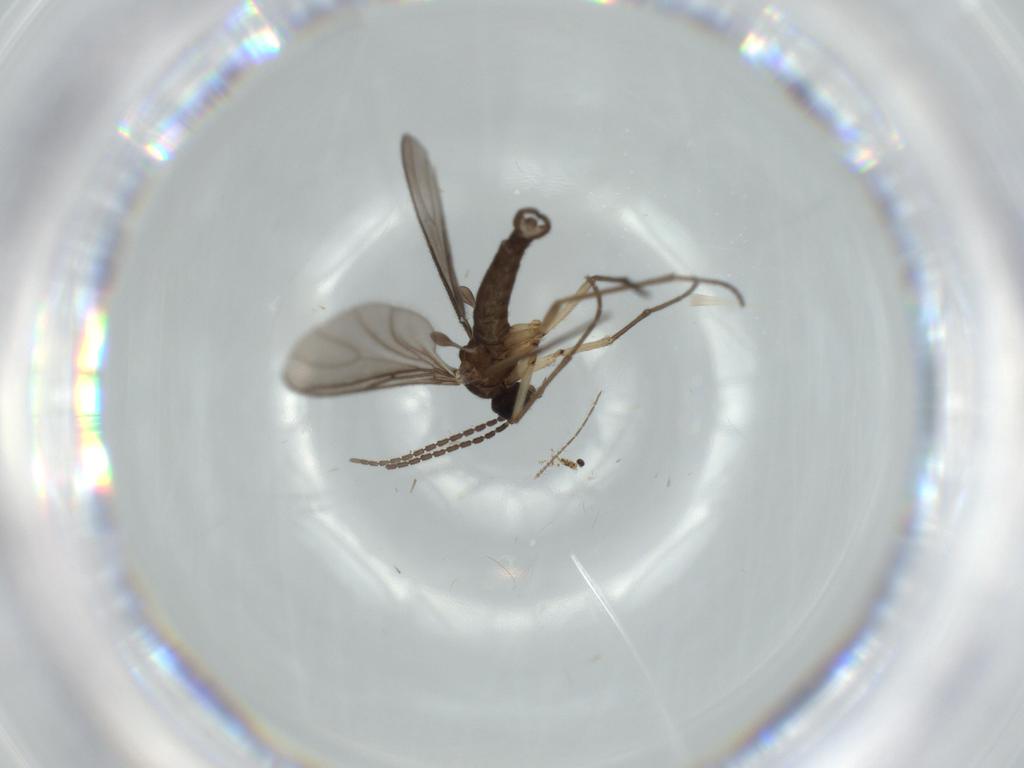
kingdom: Animalia
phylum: Arthropoda
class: Insecta
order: Diptera
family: Sciaridae
